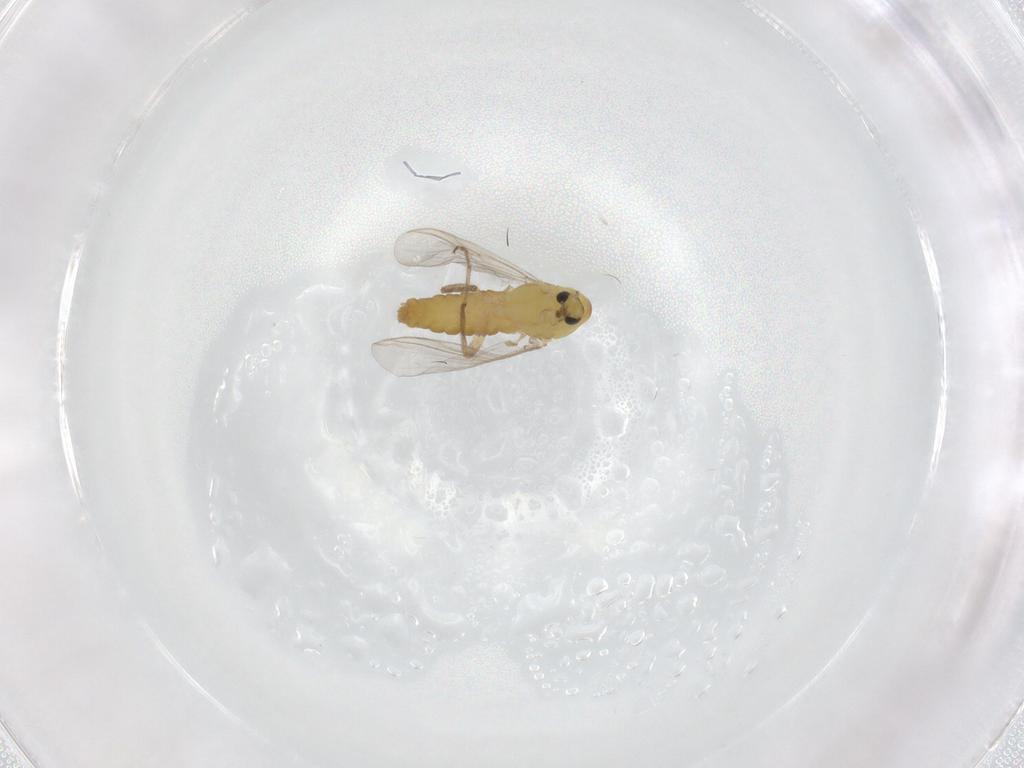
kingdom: Animalia
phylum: Arthropoda
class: Insecta
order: Diptera
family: Chironomidae
